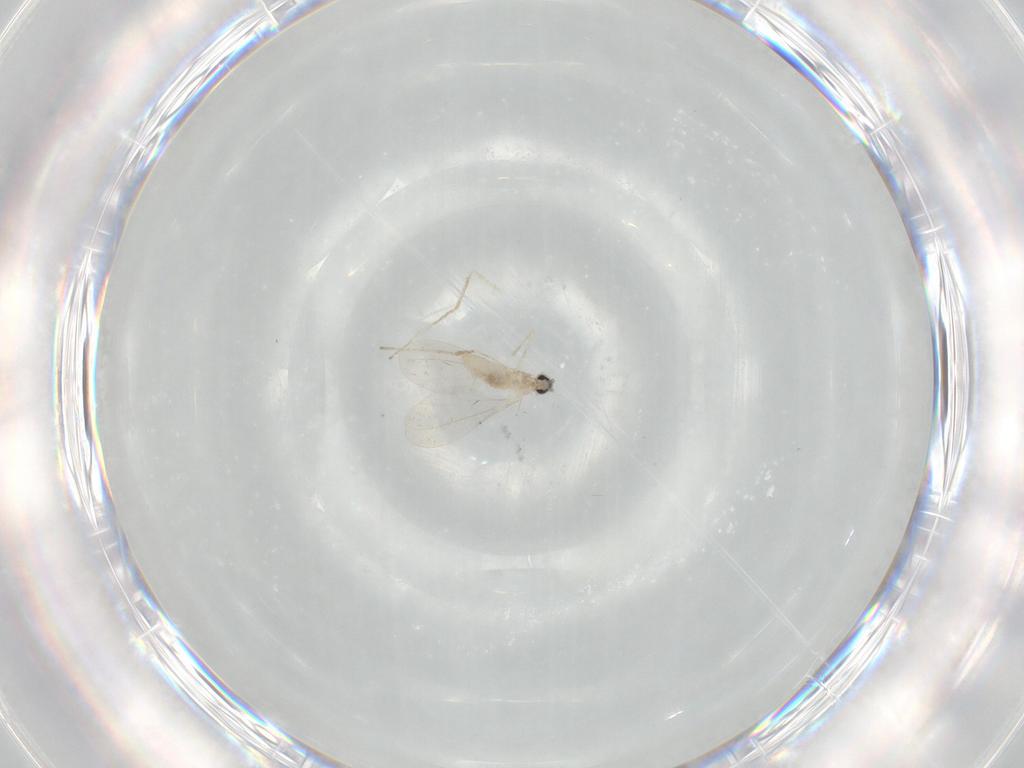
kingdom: Animalia
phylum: Arthropoda
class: Insecta
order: Diptera
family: Cecidomyiidae
